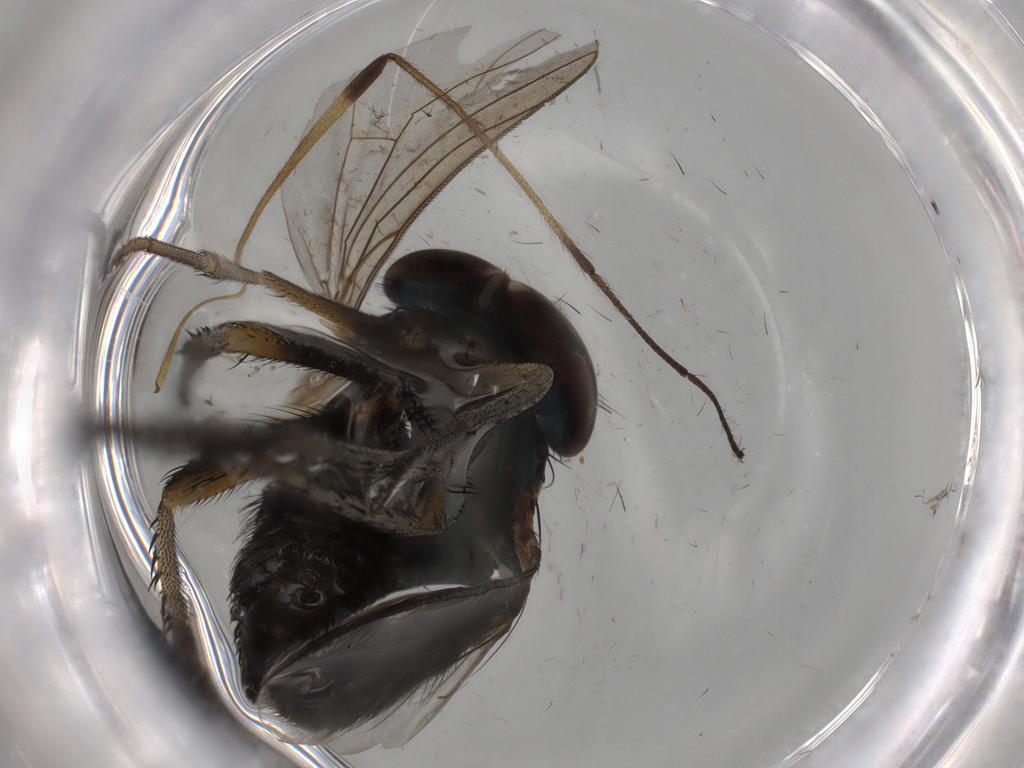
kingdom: Animalia
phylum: Arthropoda
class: Insecta
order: Diptera
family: Dolichopodidae
